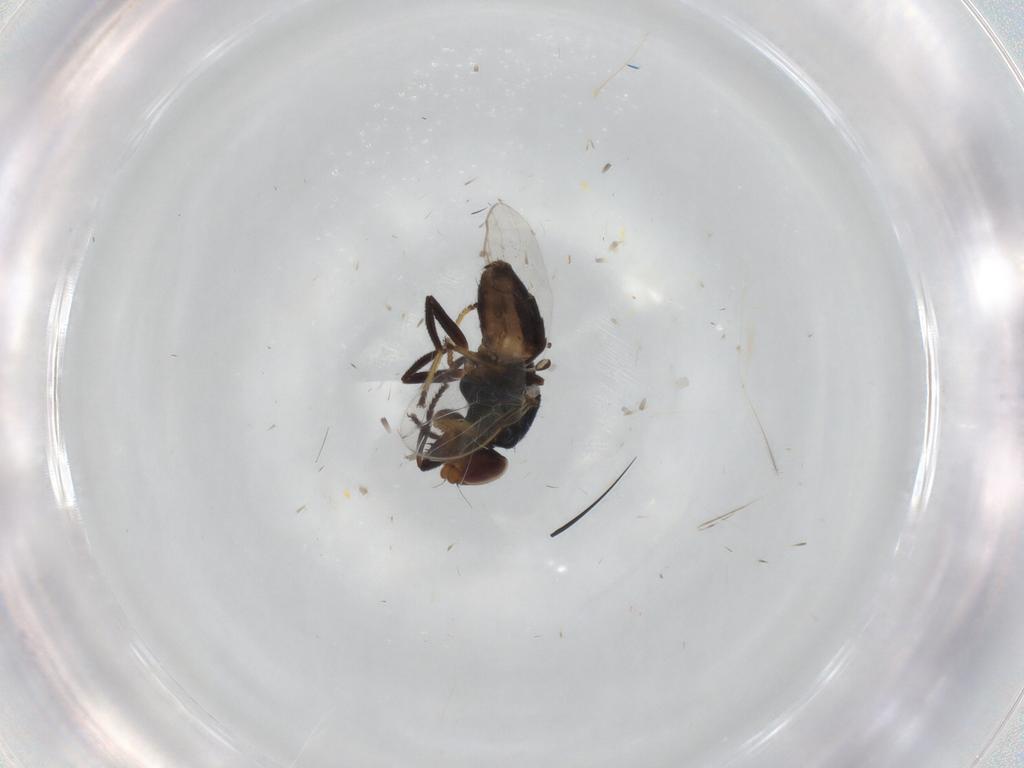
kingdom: Animalia
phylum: Arthropoda
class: Insecta
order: Diptera
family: Chloropidae
